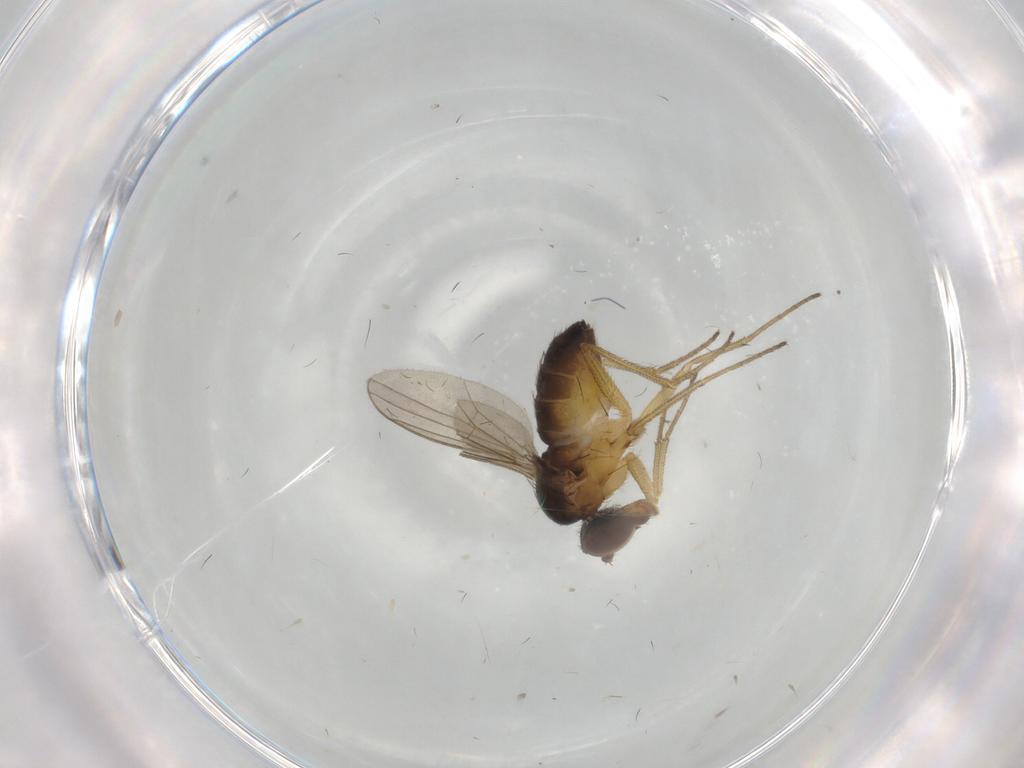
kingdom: Animalia
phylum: Arthropoda
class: Insecta
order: Diptera
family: Dolichopodidae
